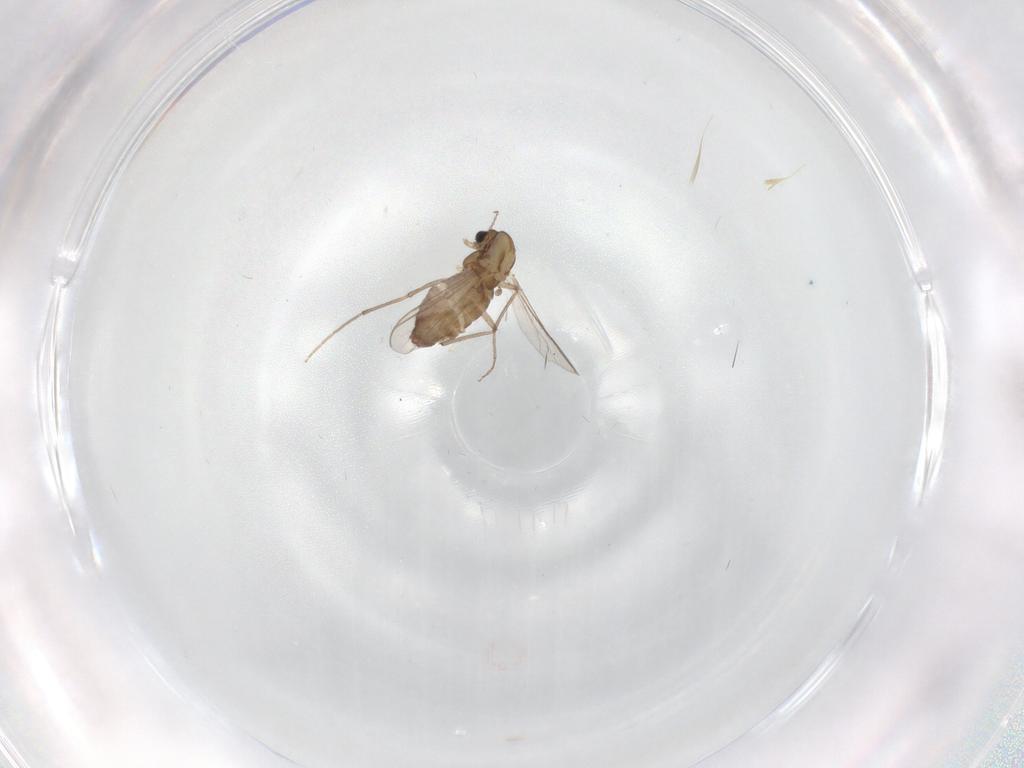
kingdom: Animalia
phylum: Arthropoda
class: Insecta
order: Diptera
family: Chironomidae
